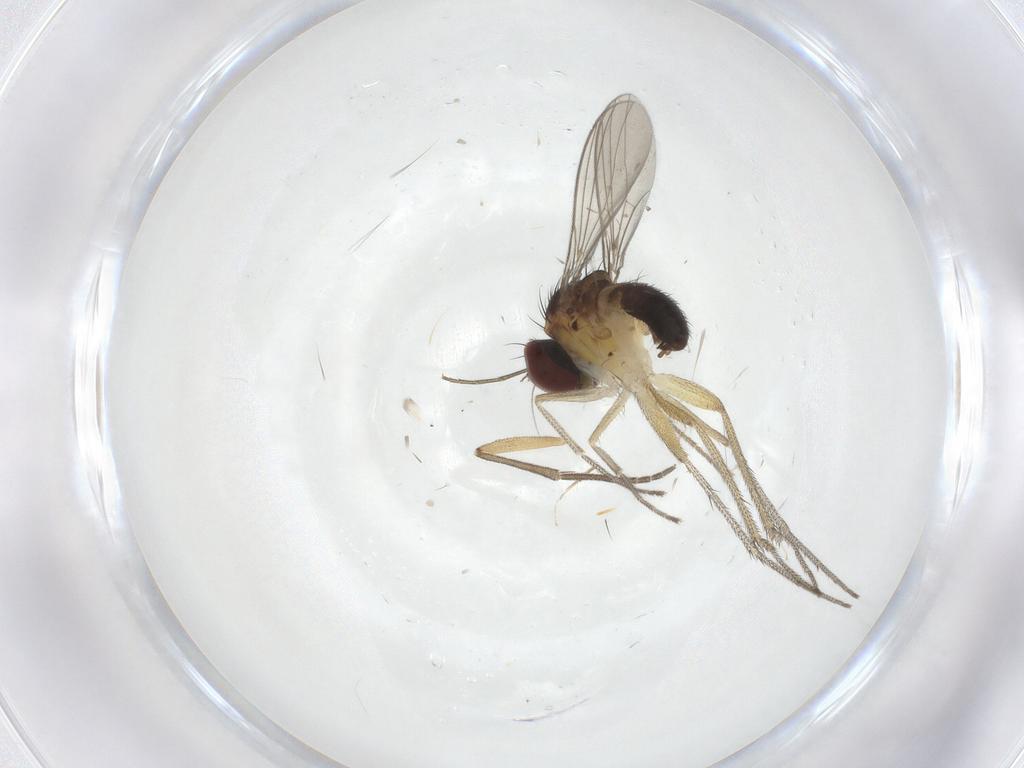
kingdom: Animalia
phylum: Arthropoda
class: Insecta
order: Diptera
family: Dolichopodidae
